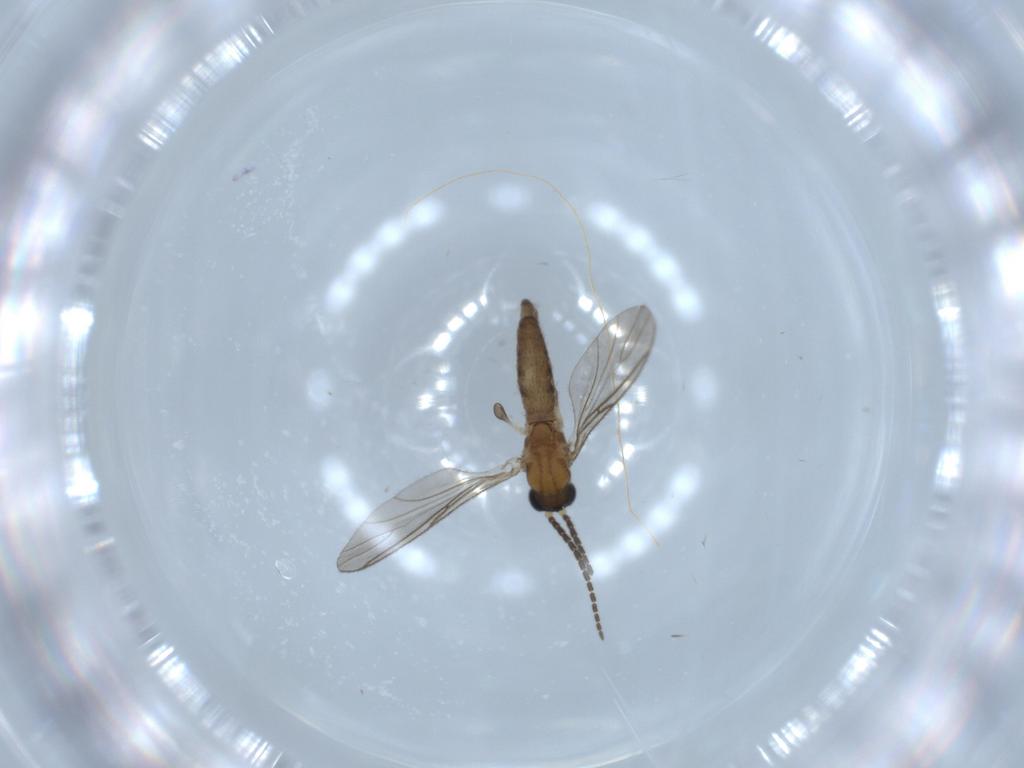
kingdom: Animalia
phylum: Arthropoda
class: Insecta
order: Diptera
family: Sciaridae
